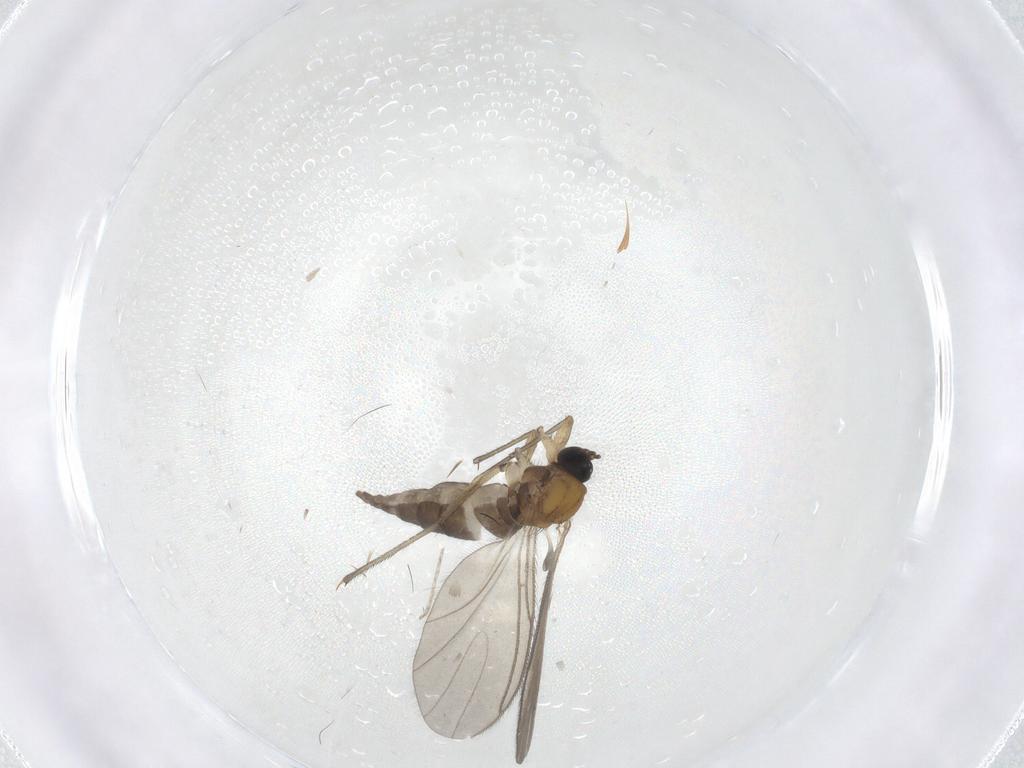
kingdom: Animalia
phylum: Arthropoda
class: Insecta
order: Diptera
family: Sciaridae
